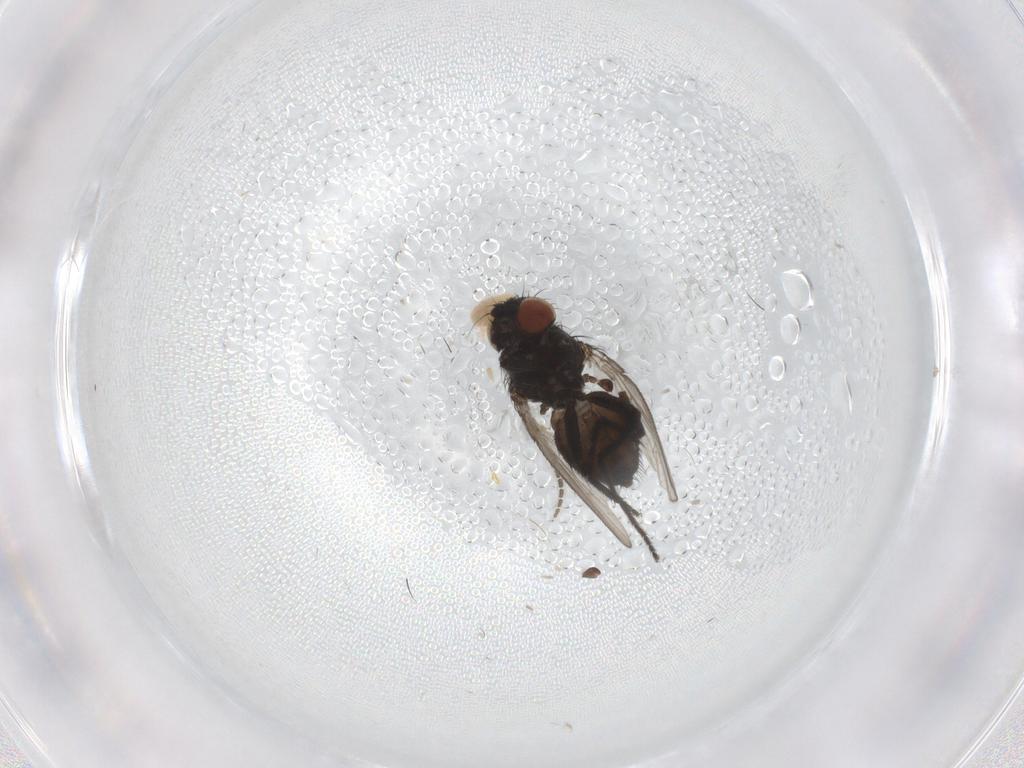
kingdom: Animalia
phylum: Arthropoda
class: Insecta
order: Diptera
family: Milichiidae
